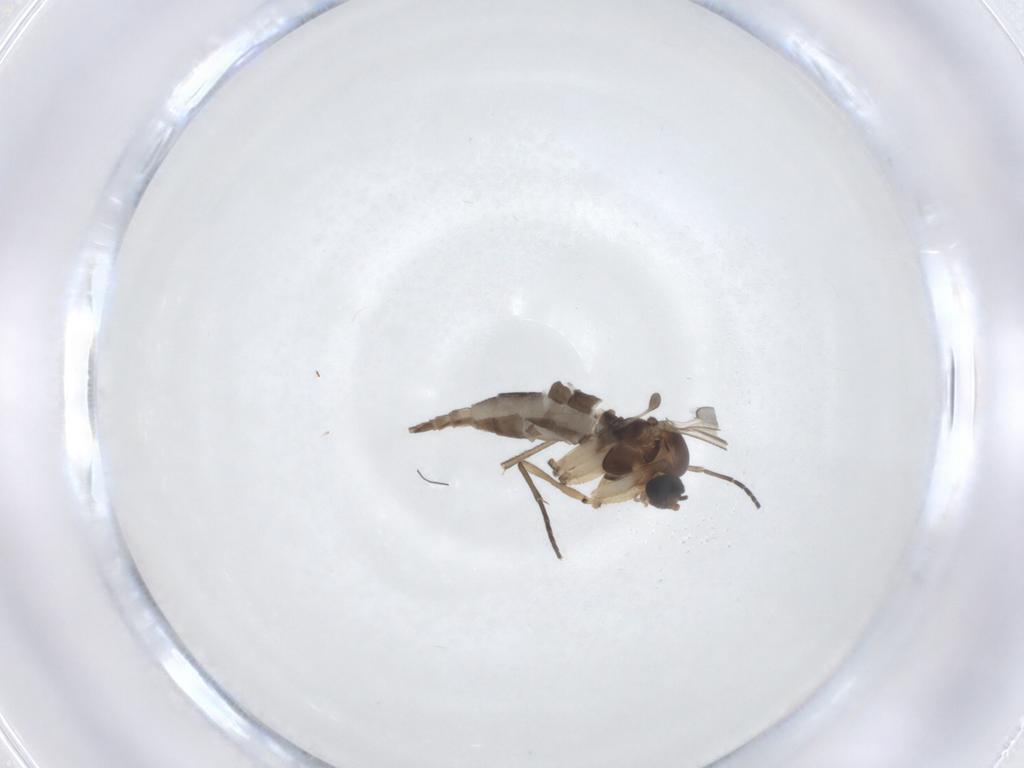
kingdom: Animalia
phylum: Arthropoda
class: Insecta
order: Diptera
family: Sciaridae
